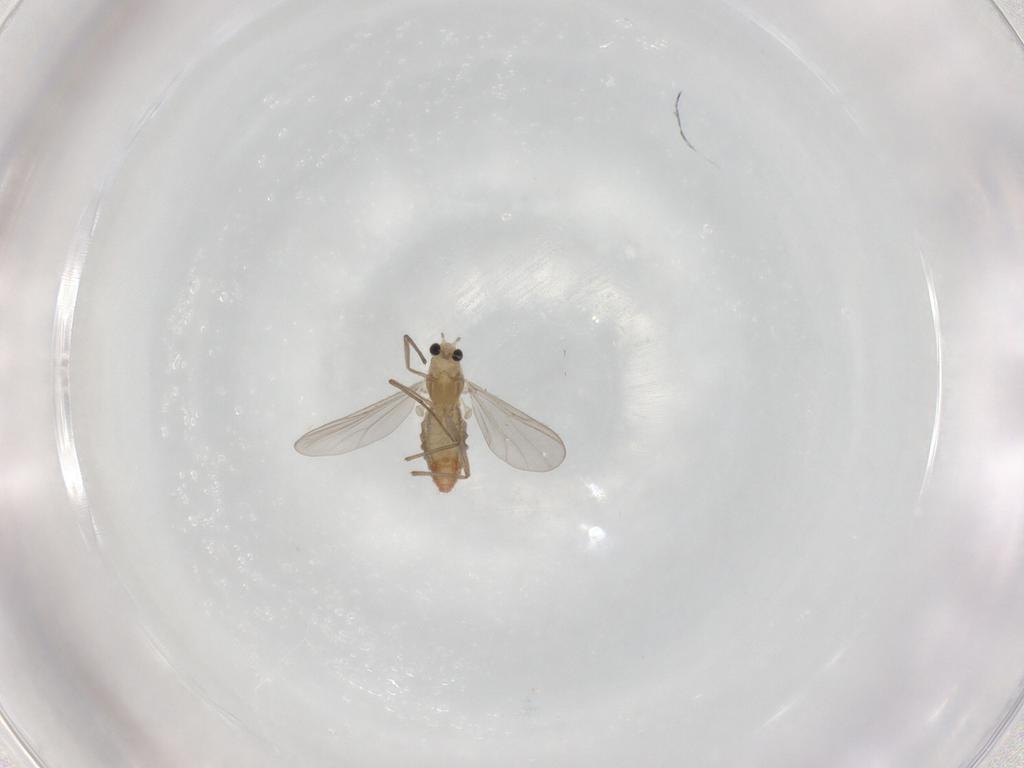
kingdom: Animalia
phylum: Arthropoda
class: Insecta
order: Diptera
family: Chironomidae
